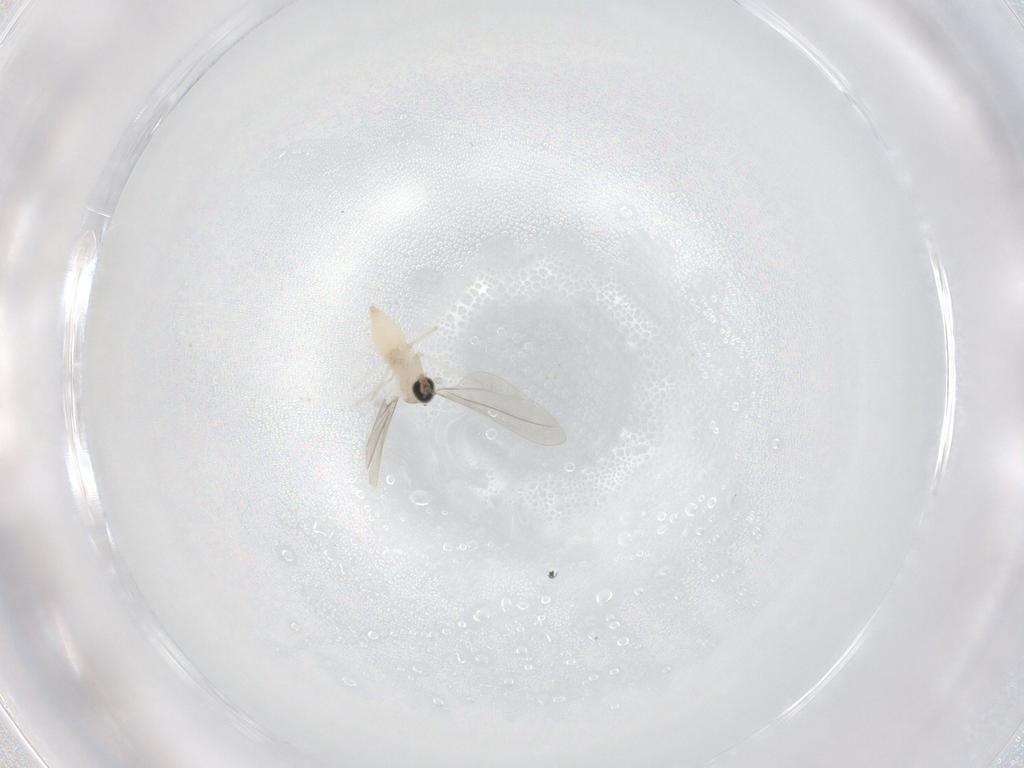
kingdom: Animalia
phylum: Arthropoda
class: Insecta
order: Diptera
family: Cecidomyiidae
